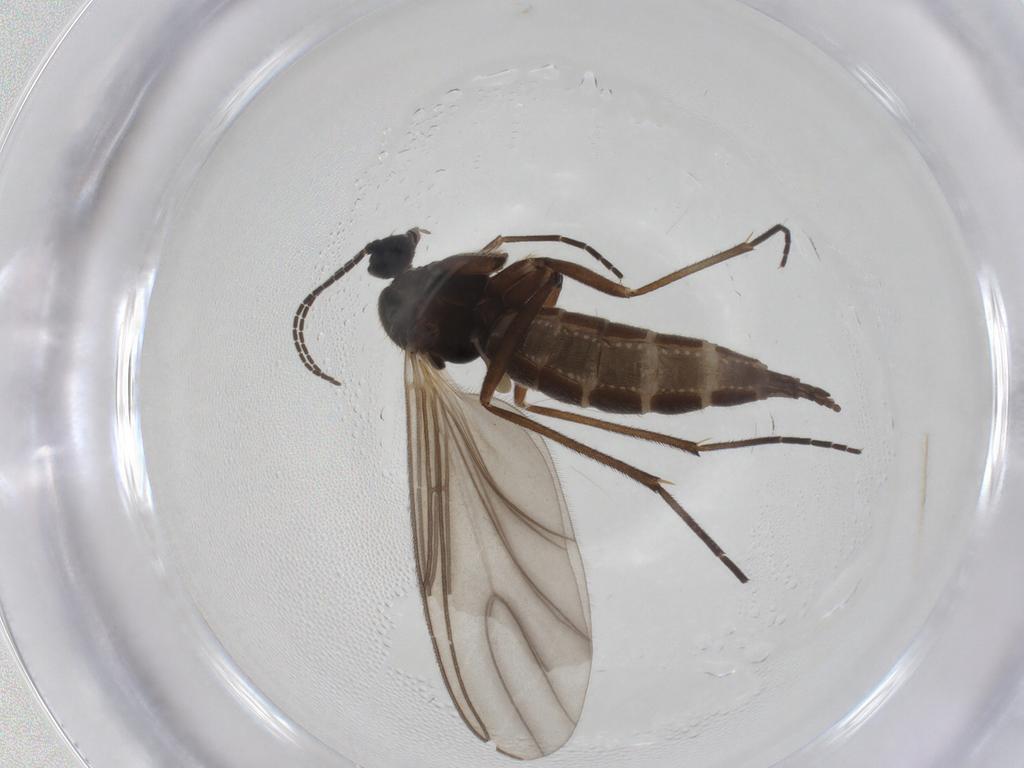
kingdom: Animalia
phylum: Arthropoda
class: Insecta
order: Diptera
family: Sciaridae
